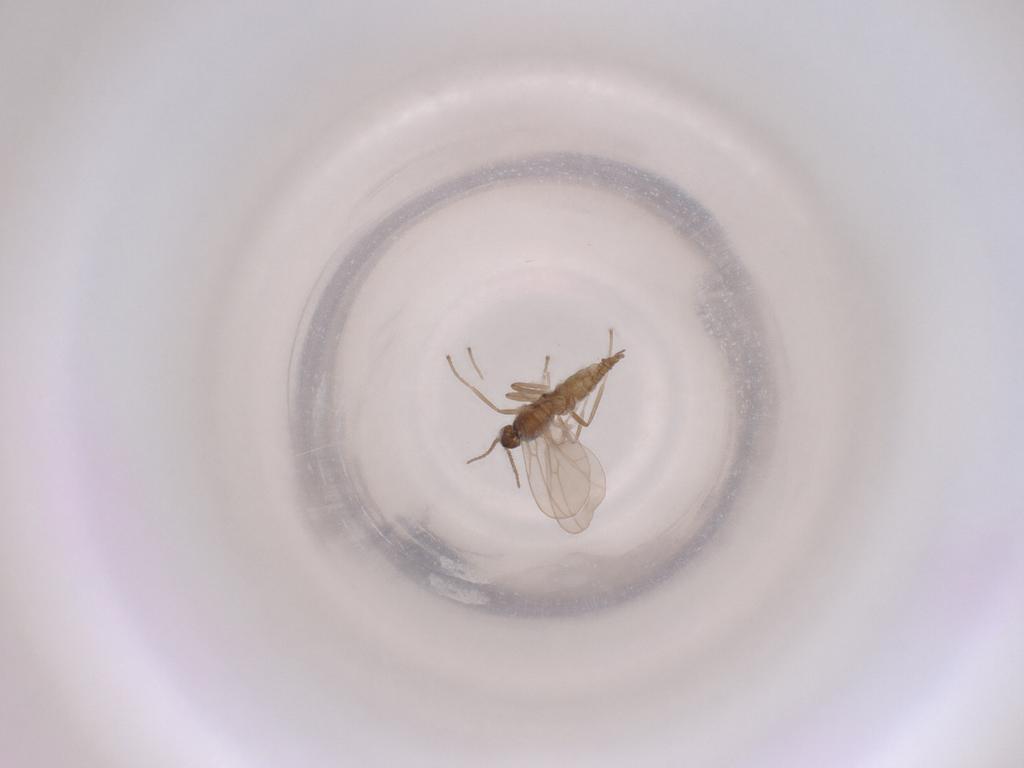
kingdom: Animalia
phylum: Arthropoda
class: Insecta
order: Diptera
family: Cecidomyiidae
